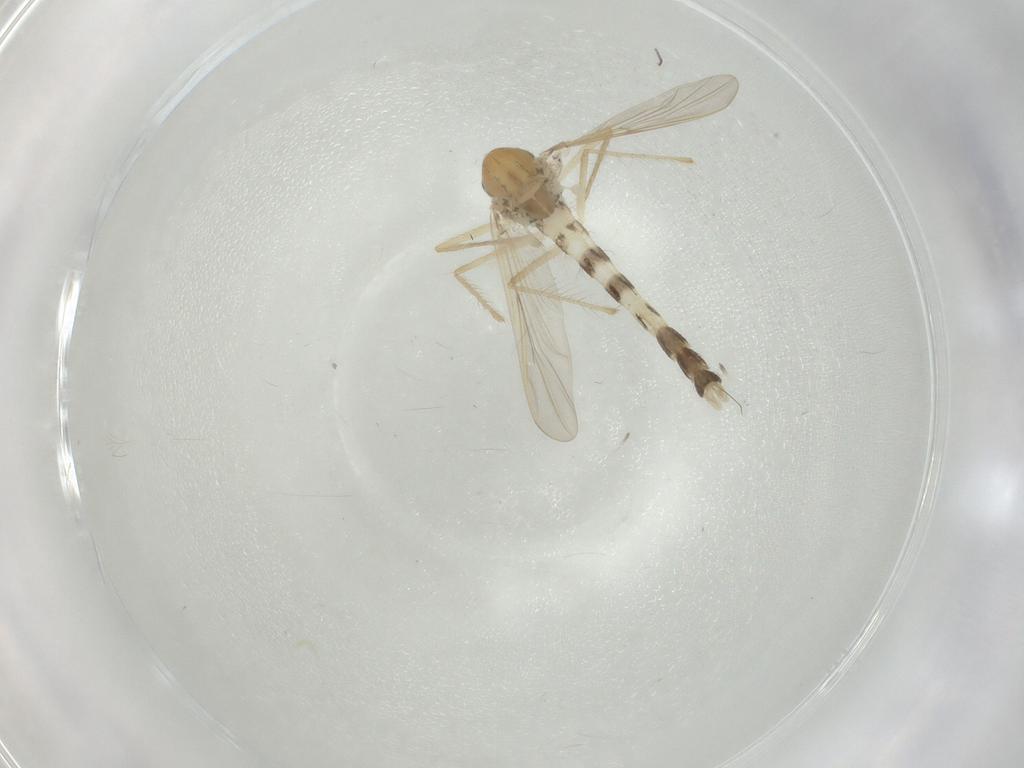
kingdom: Animalia
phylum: Arthropoda
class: Insecta
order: Diptera
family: Chironomidae
